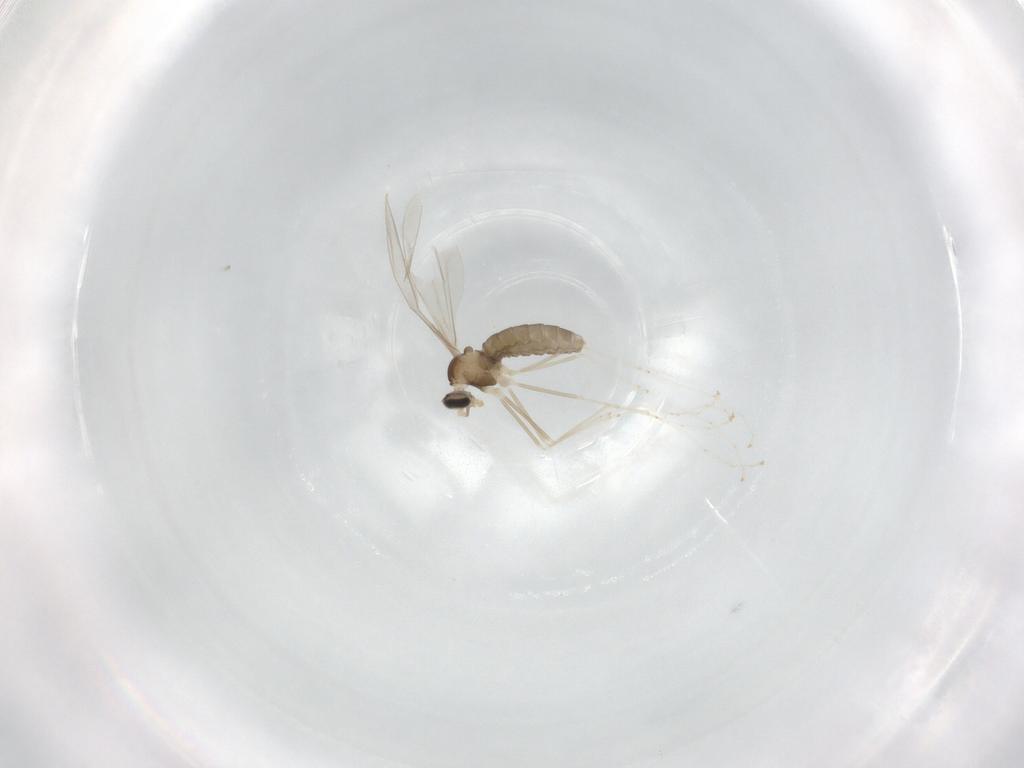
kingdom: Animalia
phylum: Arthropoda
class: Insecta
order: Diptera
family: Cecidomyiidae
